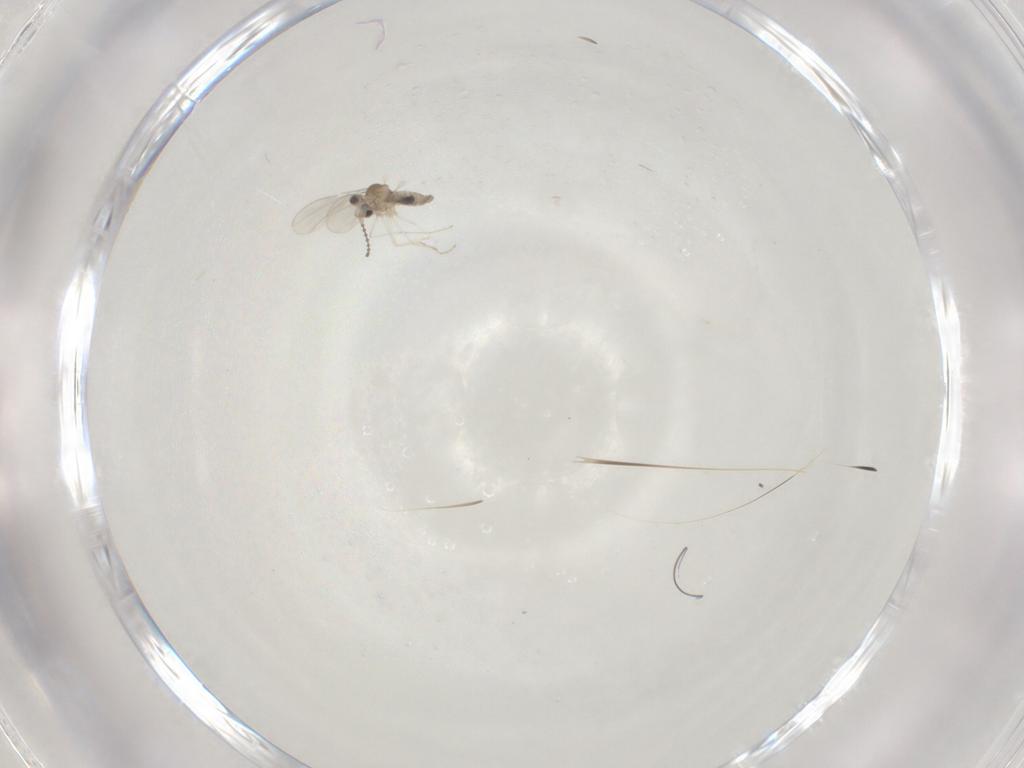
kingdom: Animalia
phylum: Arthropoda
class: Insecta
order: Diptera
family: Cecidomyiidae
